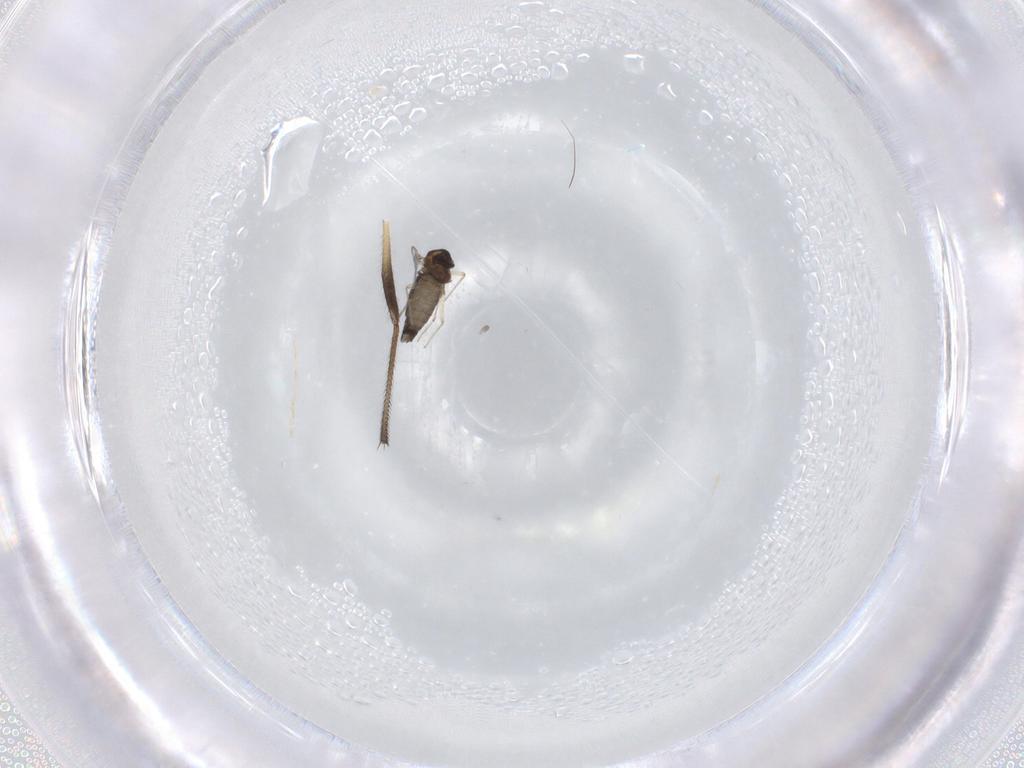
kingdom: Animalia
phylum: Arthropoda
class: Insecta
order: Diptera
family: Chironomidae
